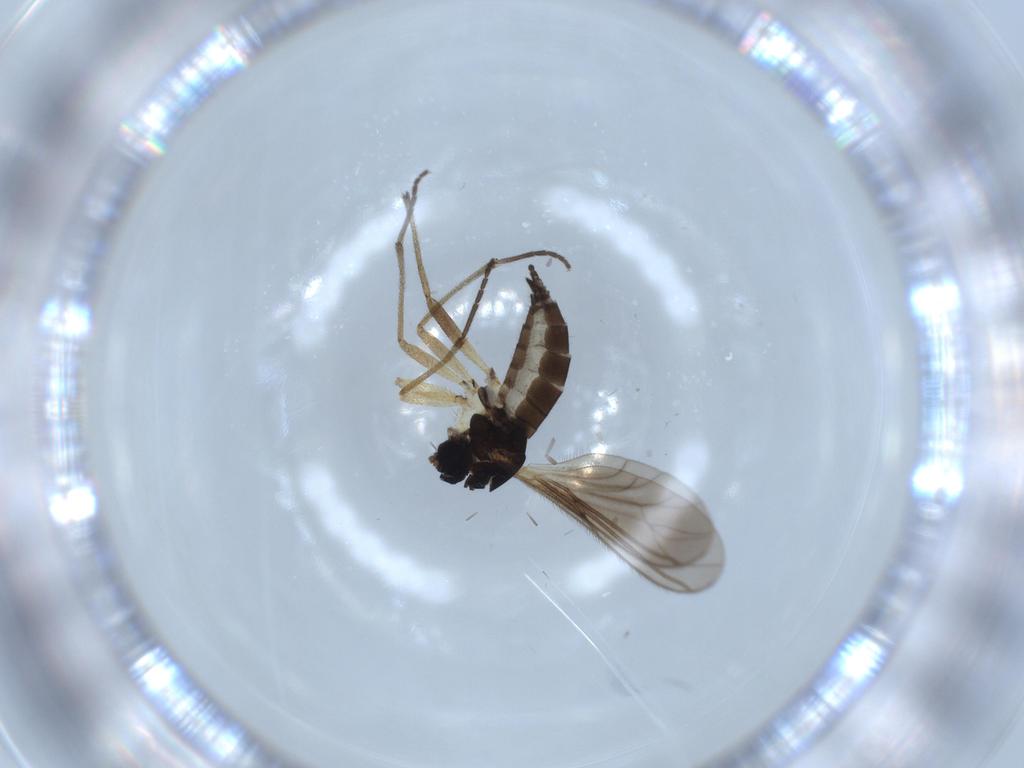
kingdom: Animalia
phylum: Arthropoda
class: Insecta
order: Diptera
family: Sciaridae
